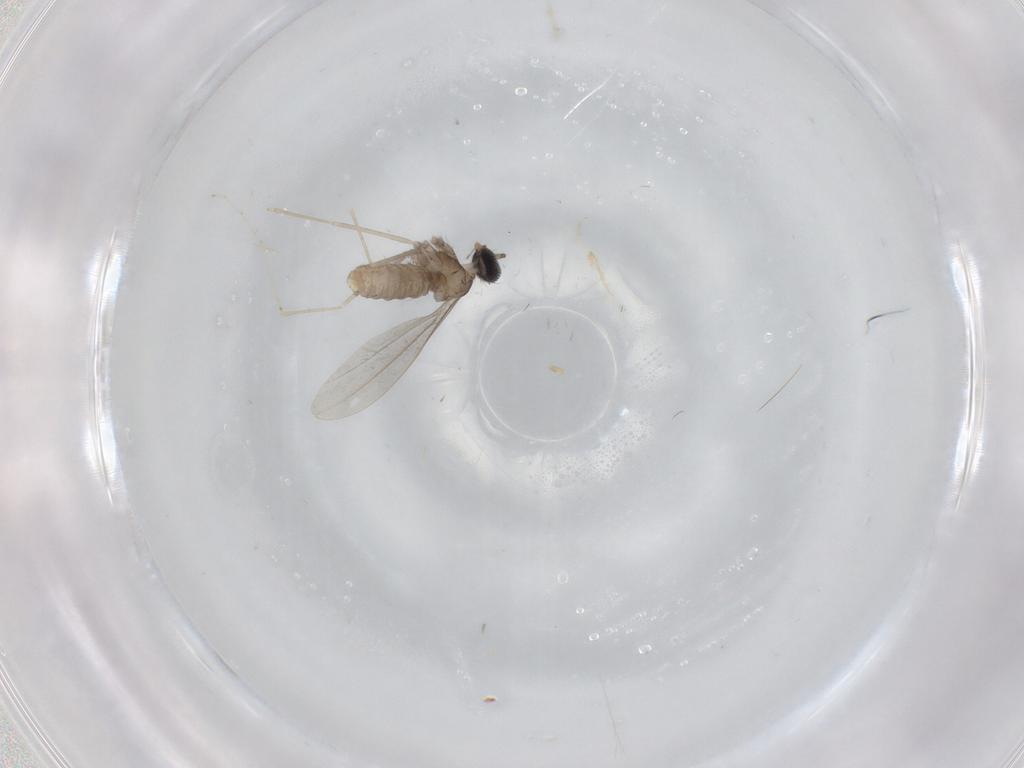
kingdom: Animalia
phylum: Arthropoda
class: Insecta
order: Diptera
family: Cecidomyiidae
